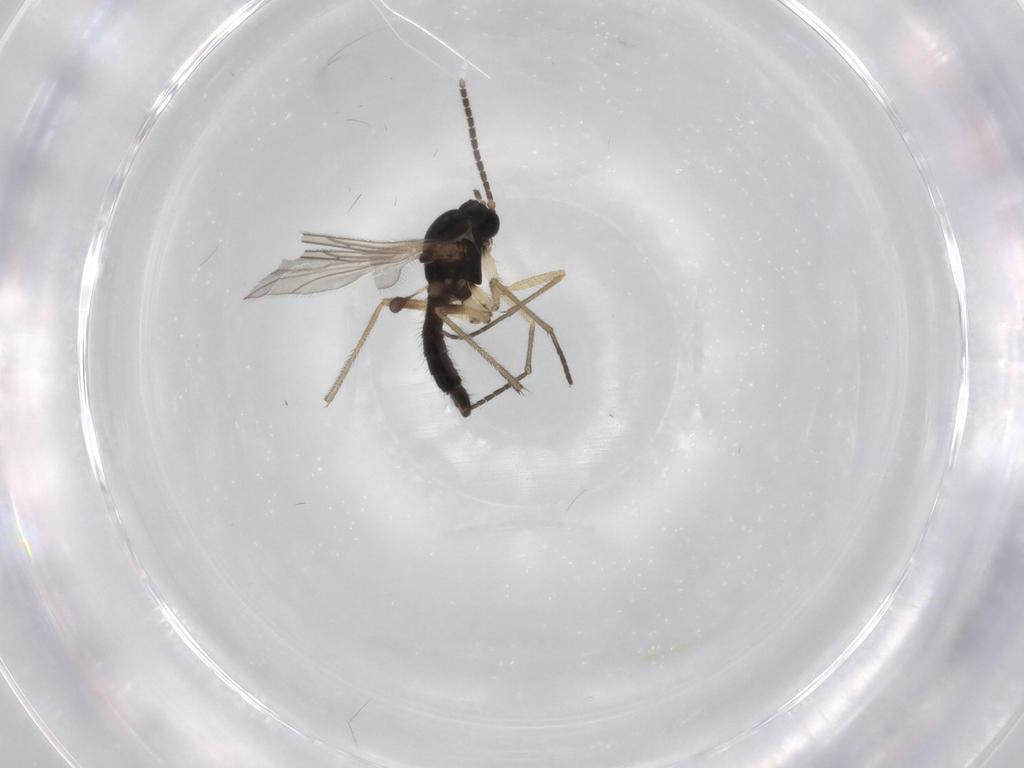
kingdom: Animalia
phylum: Arthropoda
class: Insecta
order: Diptera
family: Sciaridae
